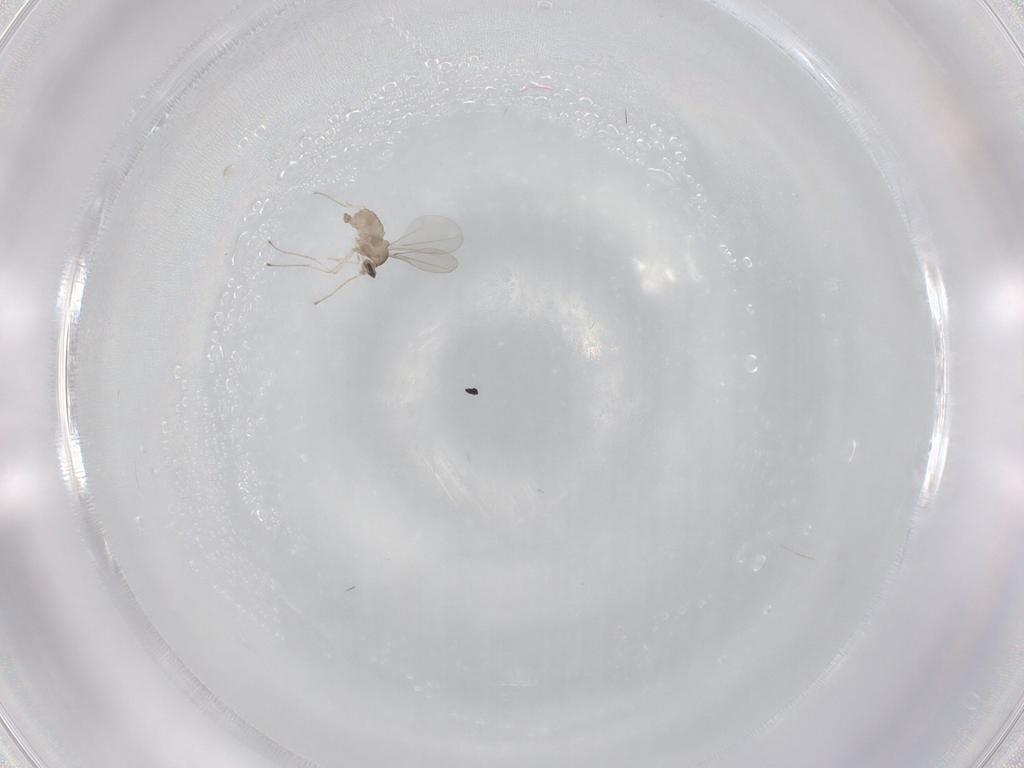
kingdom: Animalia
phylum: Arthropoda
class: Insecta
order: Diptera
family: Cecidomyiidae
